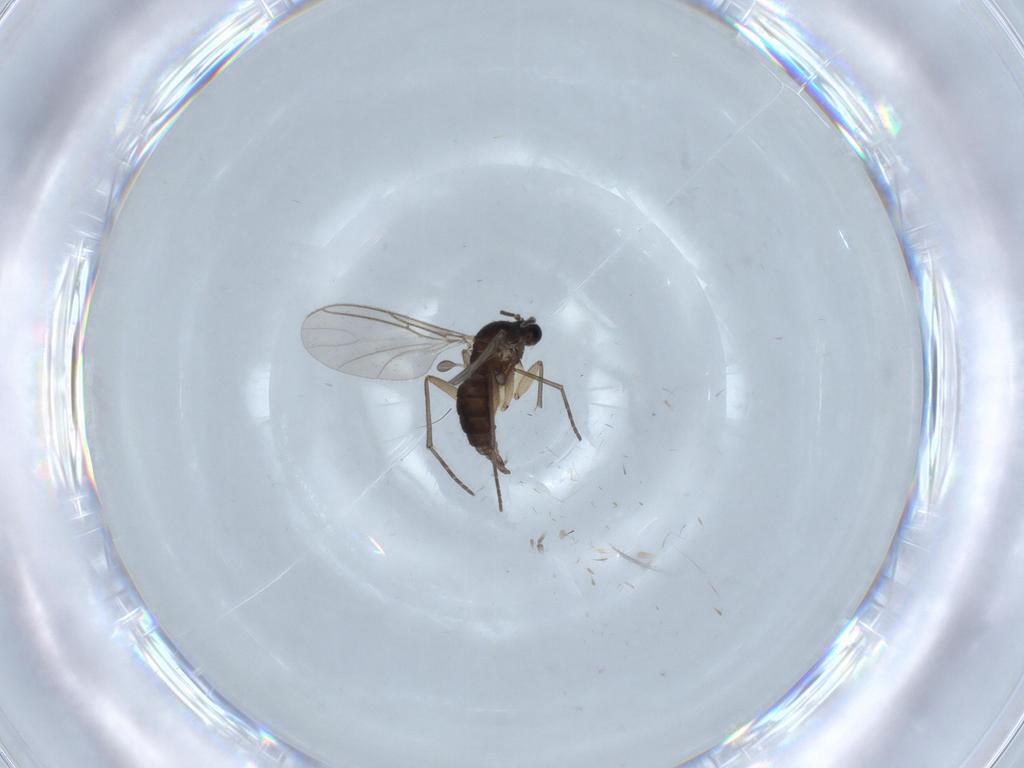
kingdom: Animalia
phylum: Arthropoda
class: Insecta
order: Diptera
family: Sciaridae
